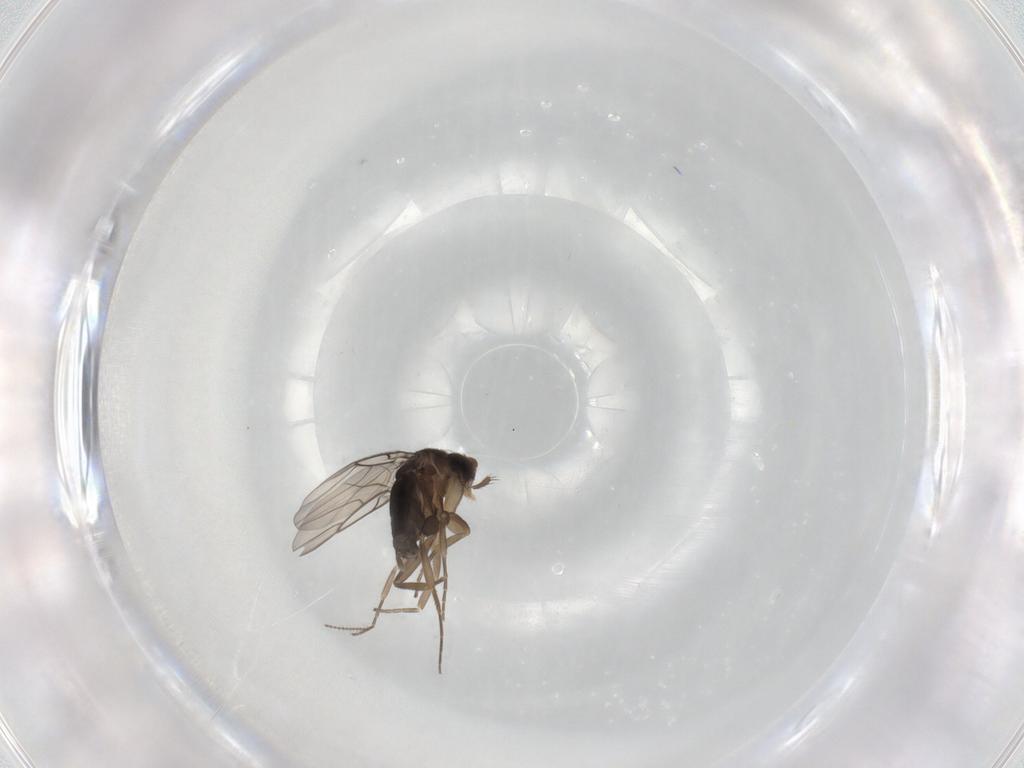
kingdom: Animalia
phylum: Arthropoda
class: Insecta
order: Diptera
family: Phoridae
